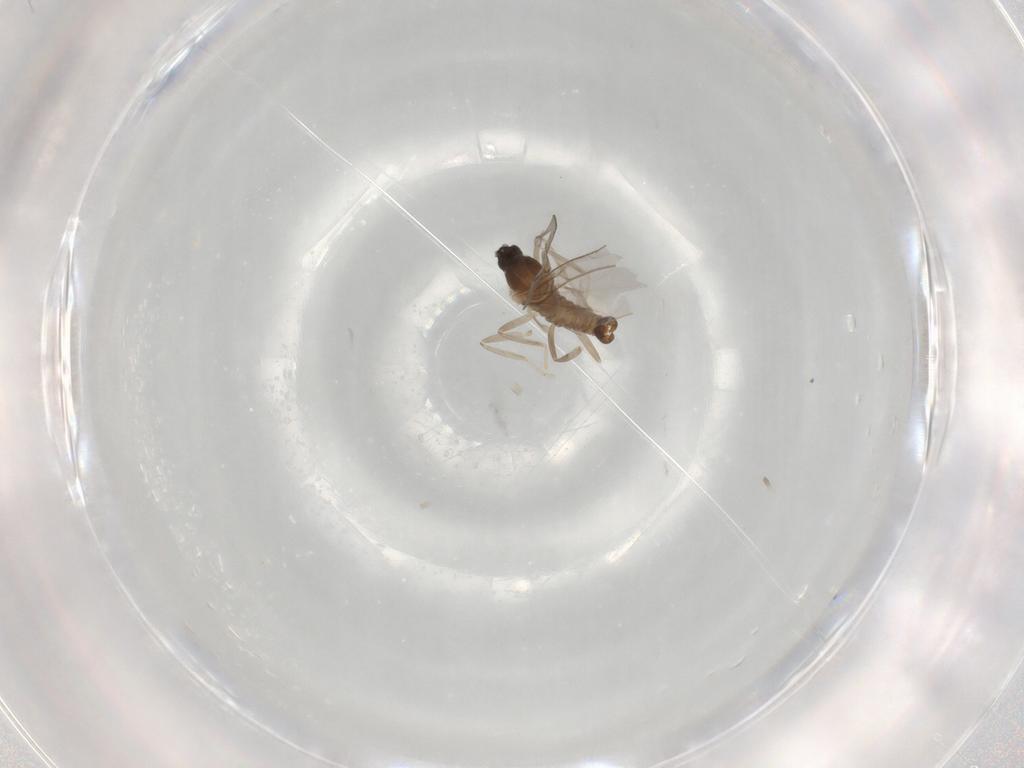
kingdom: Animalia
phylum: Arthropoda
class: Insecta
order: Diptera
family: Cecidomyiidae
